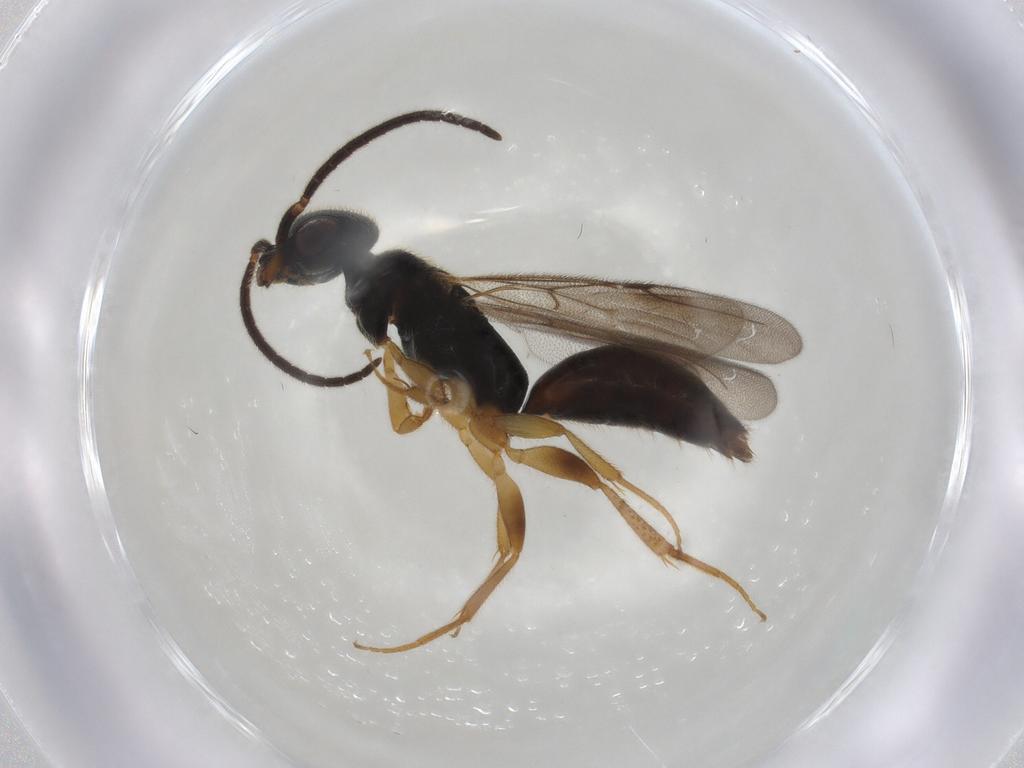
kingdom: Animalia
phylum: Arthropoda
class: Insecta
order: Hymenoptera
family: Bethylidae
